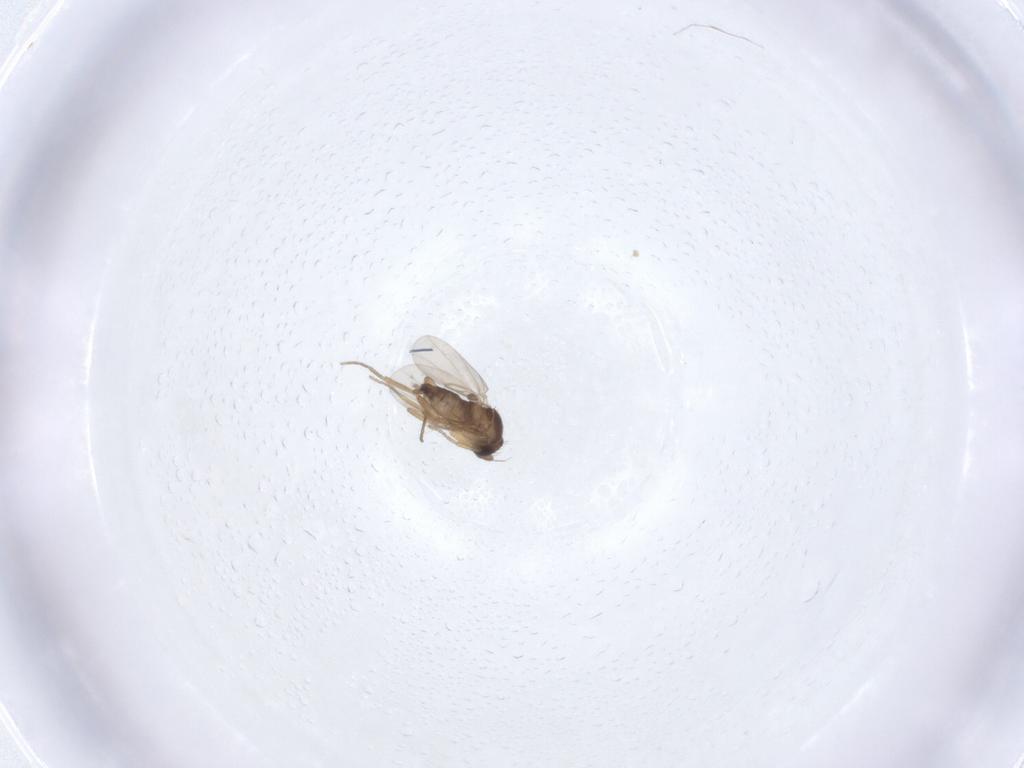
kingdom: Animalia
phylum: Arthropoda
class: Insecta
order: Diptera
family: Phoridae
